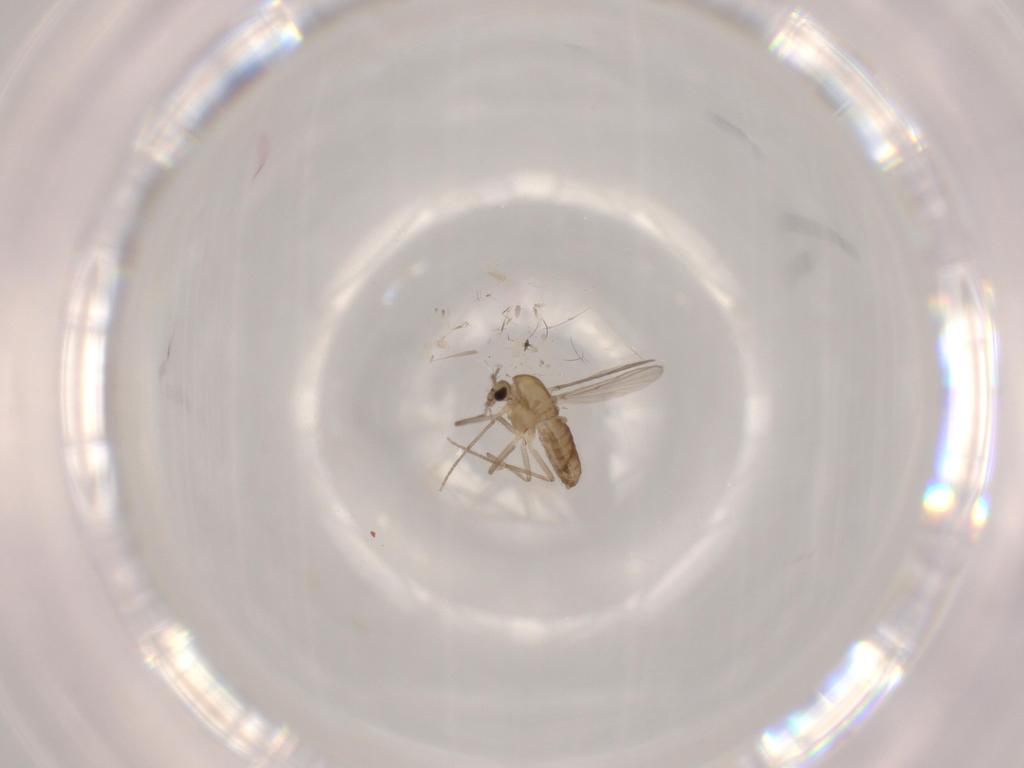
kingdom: Animalia
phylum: Arthropoda
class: Insecta
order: Diptera
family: Chironomidae
